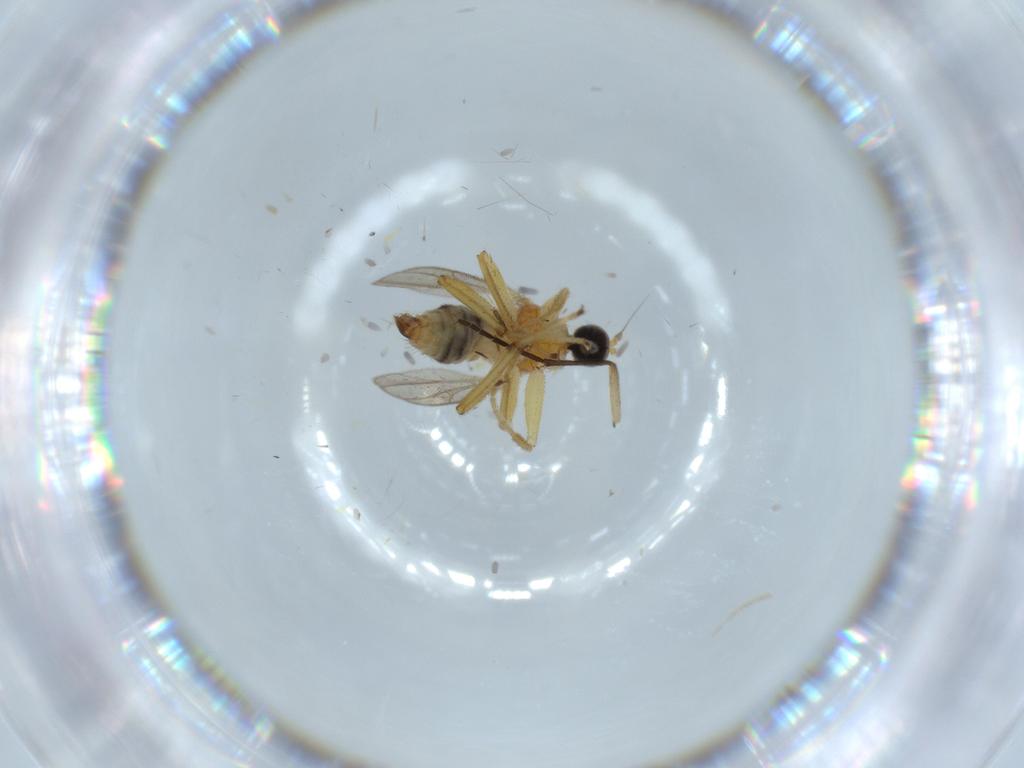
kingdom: Animalia
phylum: Arthropoda
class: Insecta
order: Diptera
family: Hybotidae
